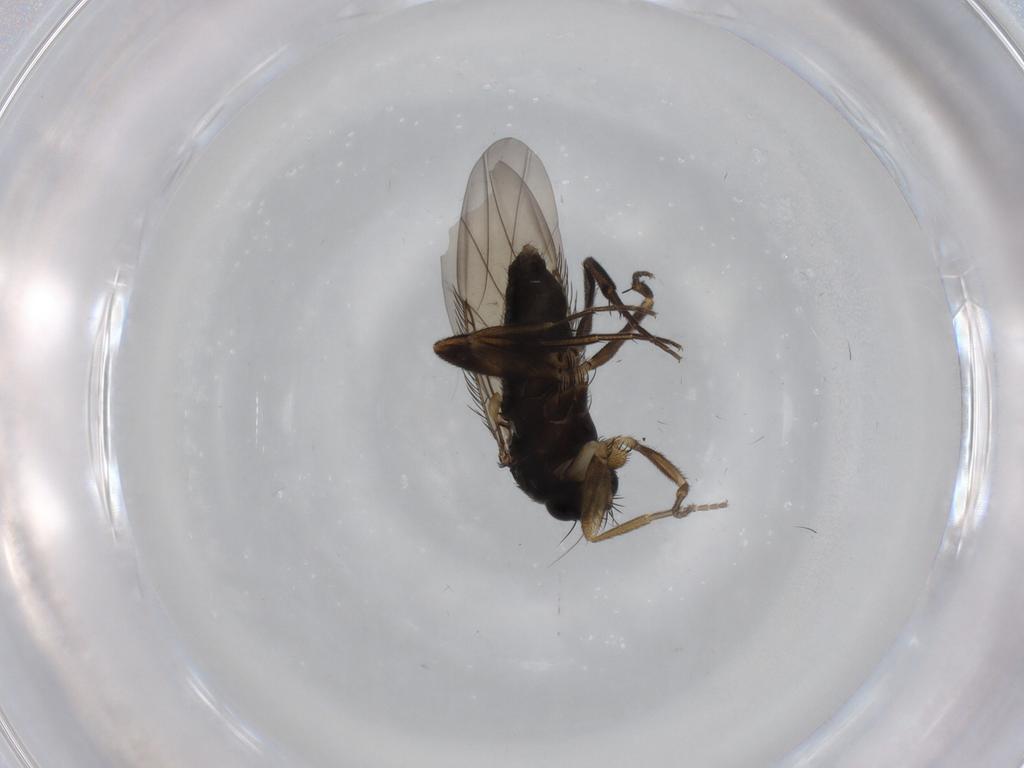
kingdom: Animalia
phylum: Arthropoda
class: Insecta
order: Diptera
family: Phoridae
